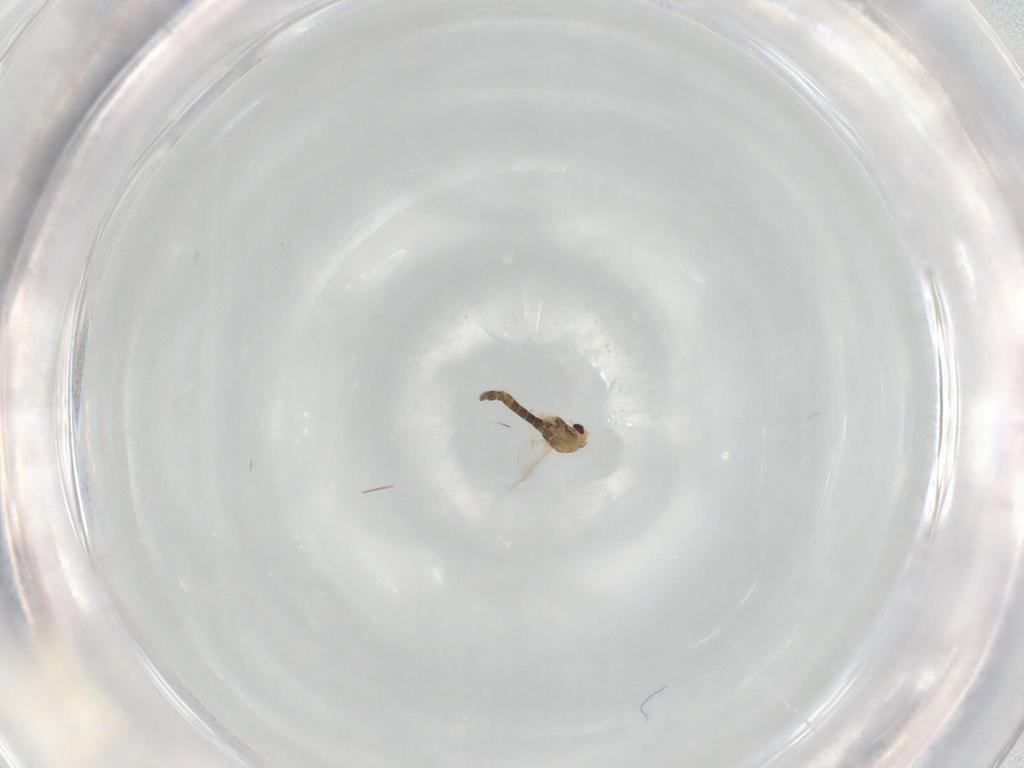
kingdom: Animalia
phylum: Arthropoda
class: Insecta
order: Diptera
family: Chironomidae
